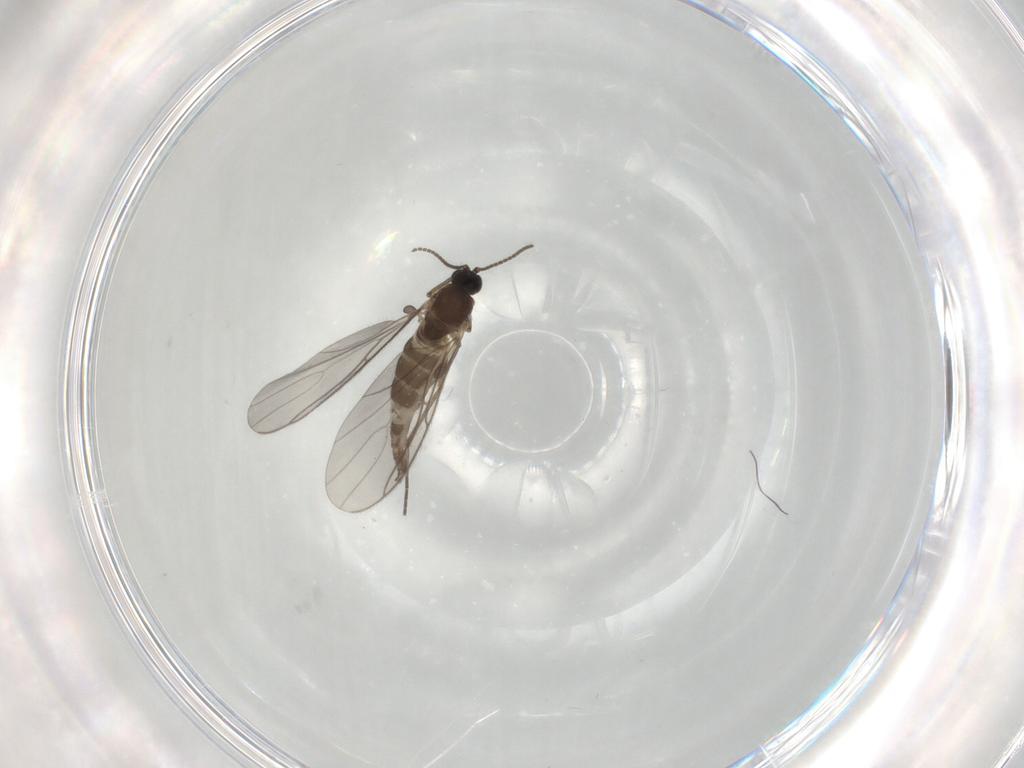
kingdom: Animalia
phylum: Arthropoda
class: Insecta
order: Diptera
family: Sciaridae
